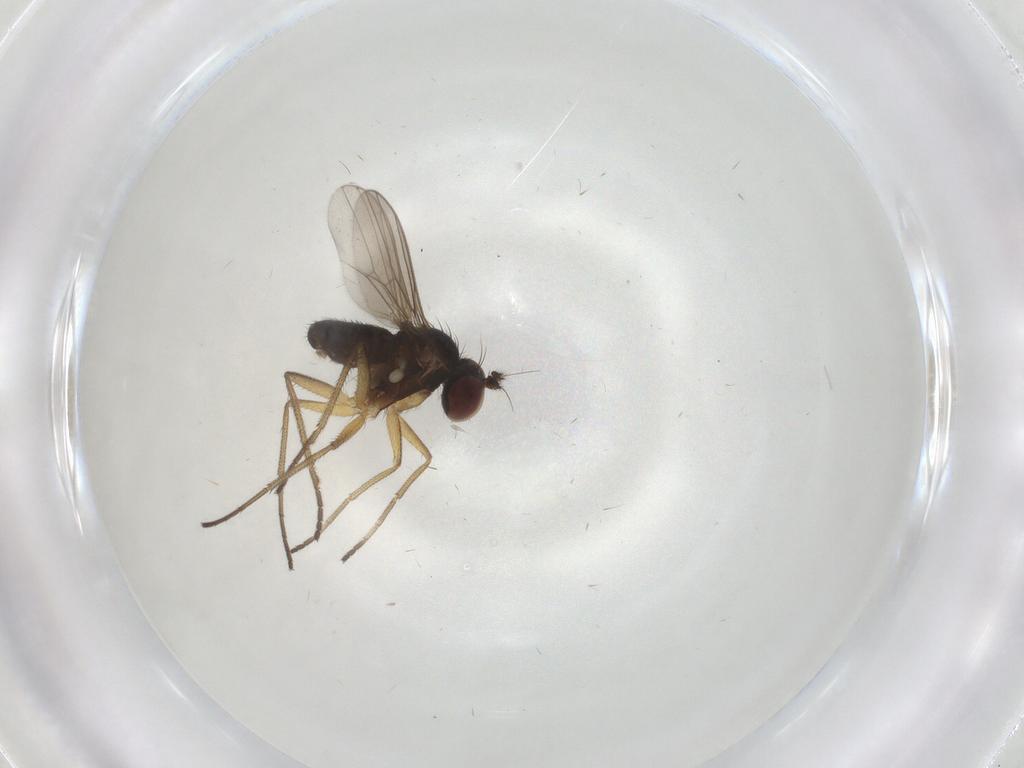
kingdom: Animalia
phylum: Arthropoda
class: Insecta
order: Diptera
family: Dolichopodidae
